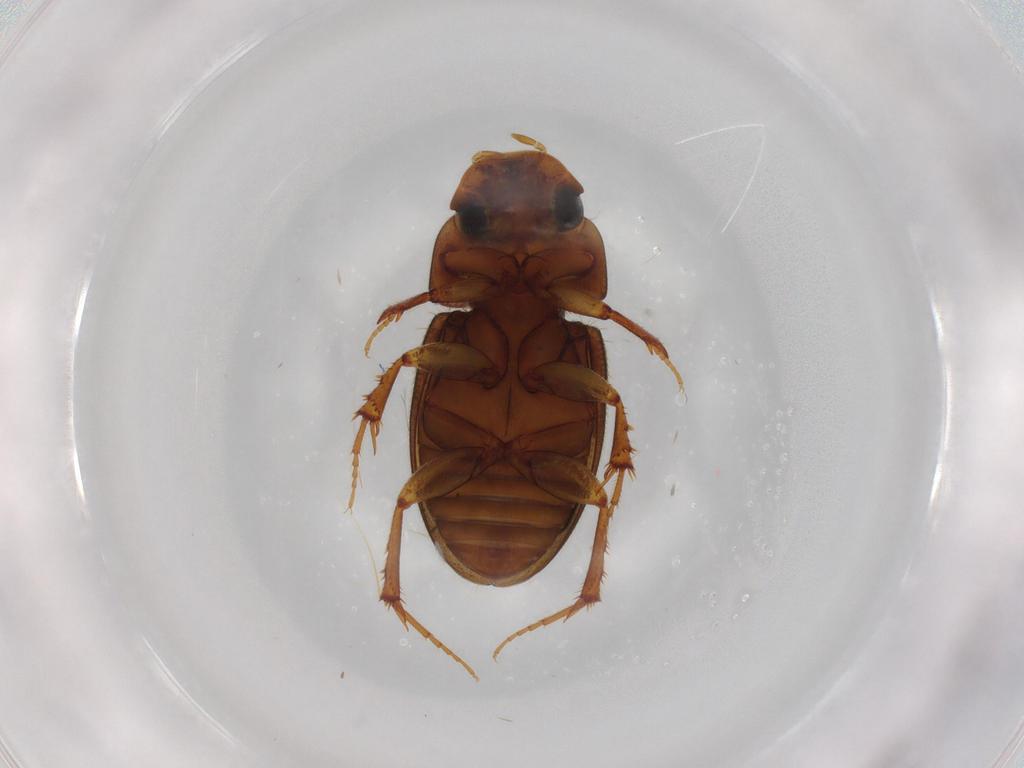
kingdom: Animalia
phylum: Arthropoda
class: Insecta
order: Coleoptera
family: Scarabaeidae
